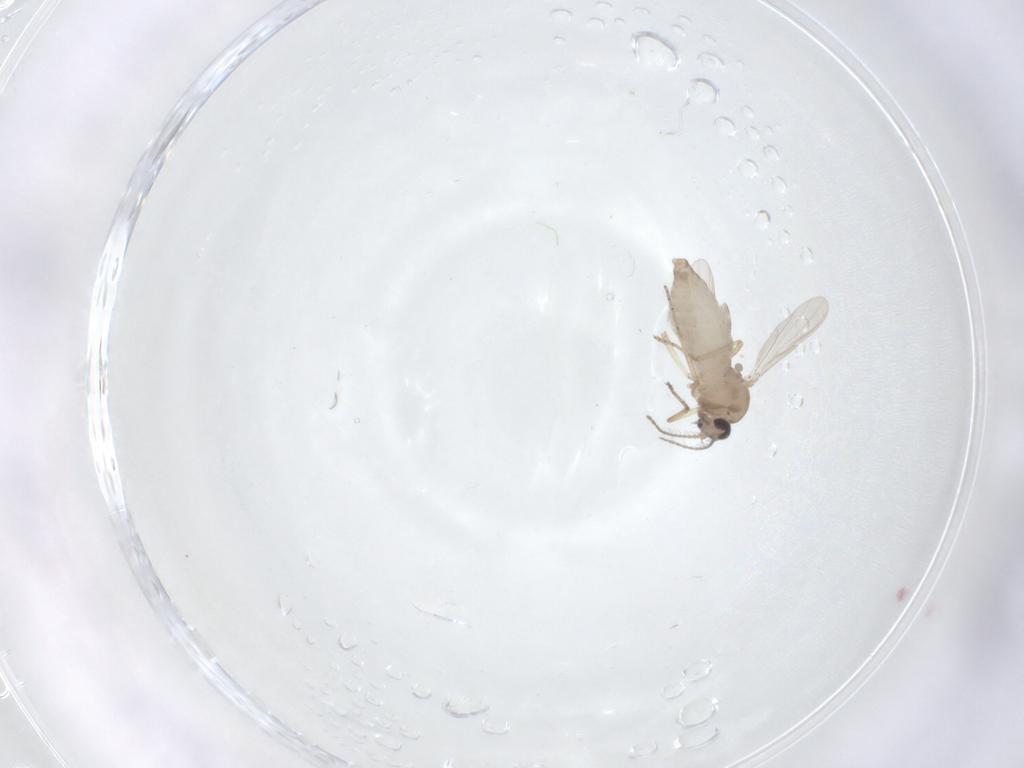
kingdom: Animalia
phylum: Arthropoda
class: Insecta
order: Diptera
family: Ceratopogonidae
